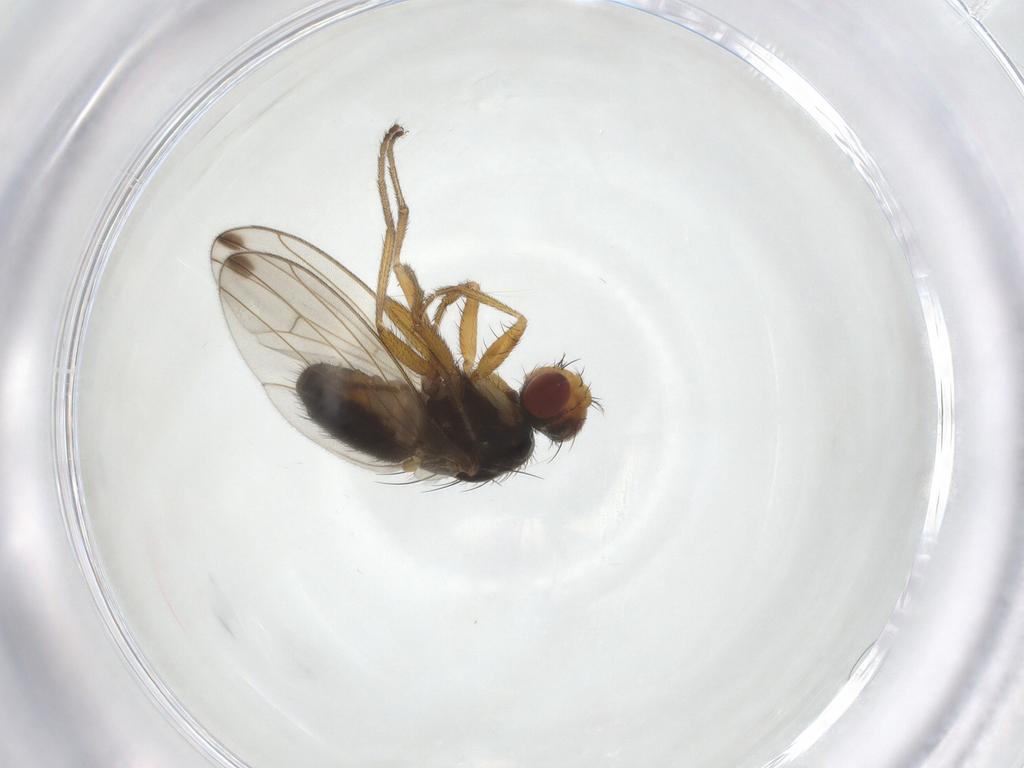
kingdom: Animalia
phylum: Arthropoda
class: Insecta
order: Diptera
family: Drosophilidae
